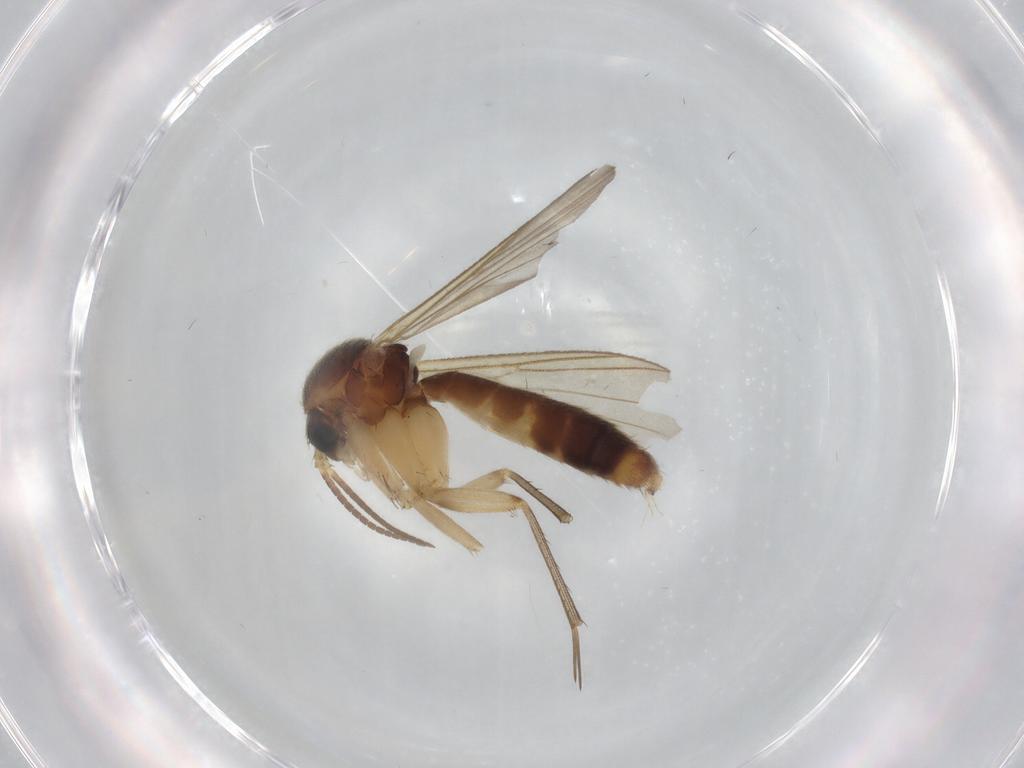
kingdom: Animalia
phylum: Arthropoda
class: Insecta
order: Diptera
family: Mycetophilidae
